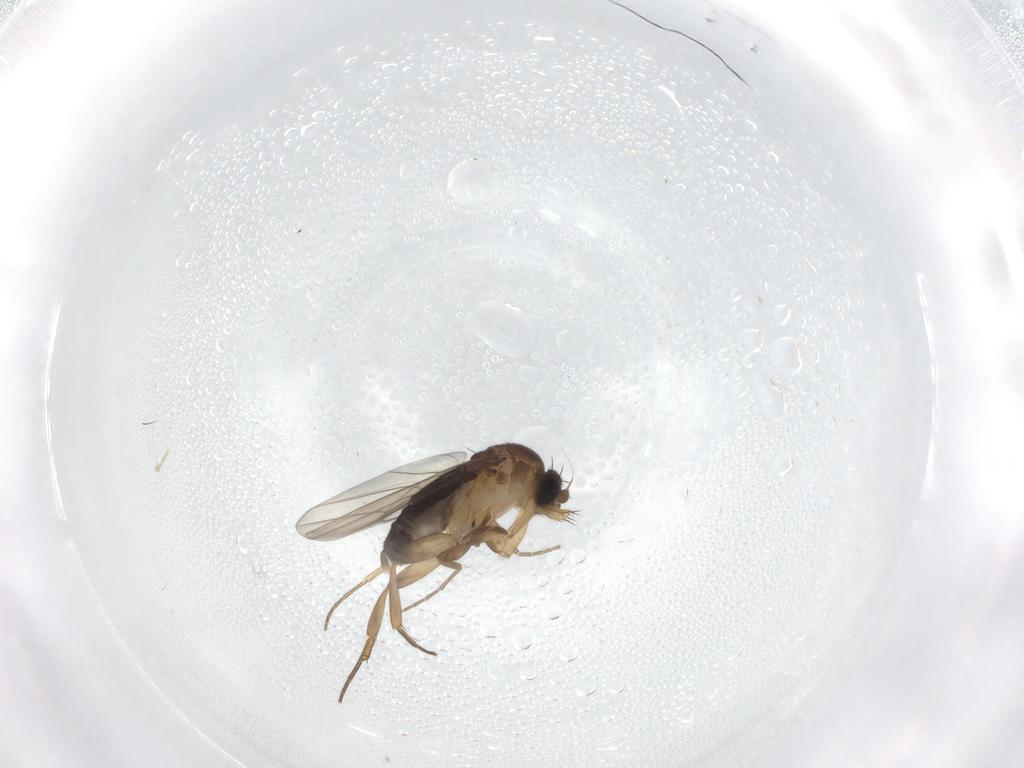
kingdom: Animalia
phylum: Arthropoda
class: Insecta
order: Diptera
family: Phoridae
